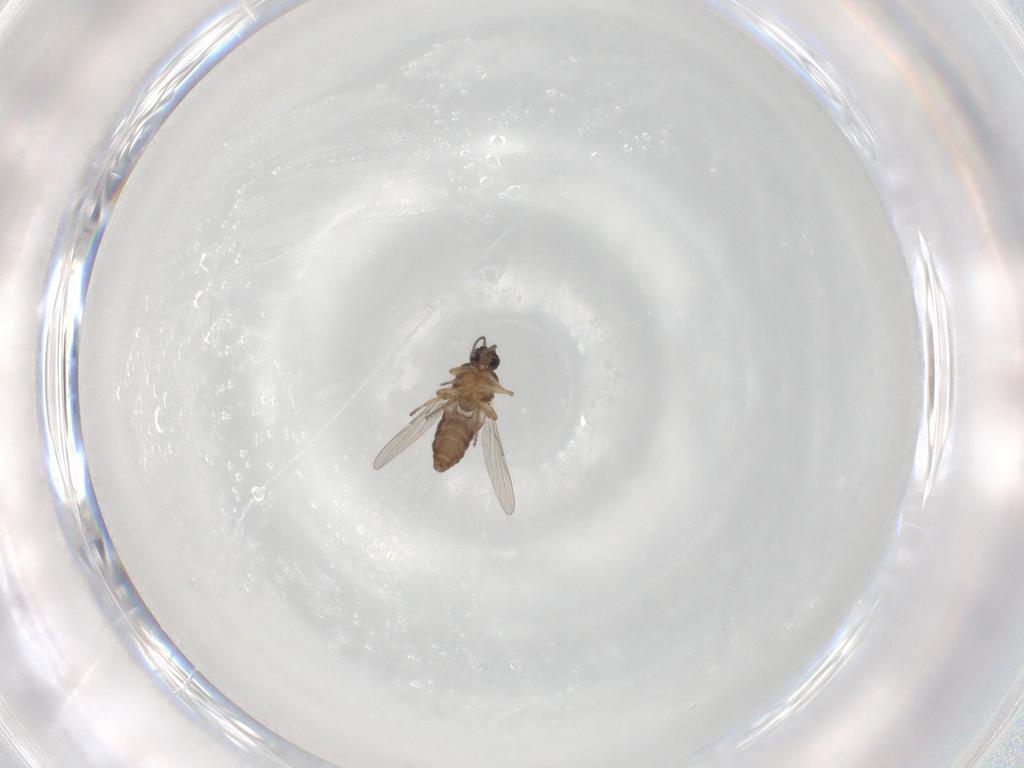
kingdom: Animalia
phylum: Arthropoda
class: Insecta
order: Diptera
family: Ceratopogonidae
